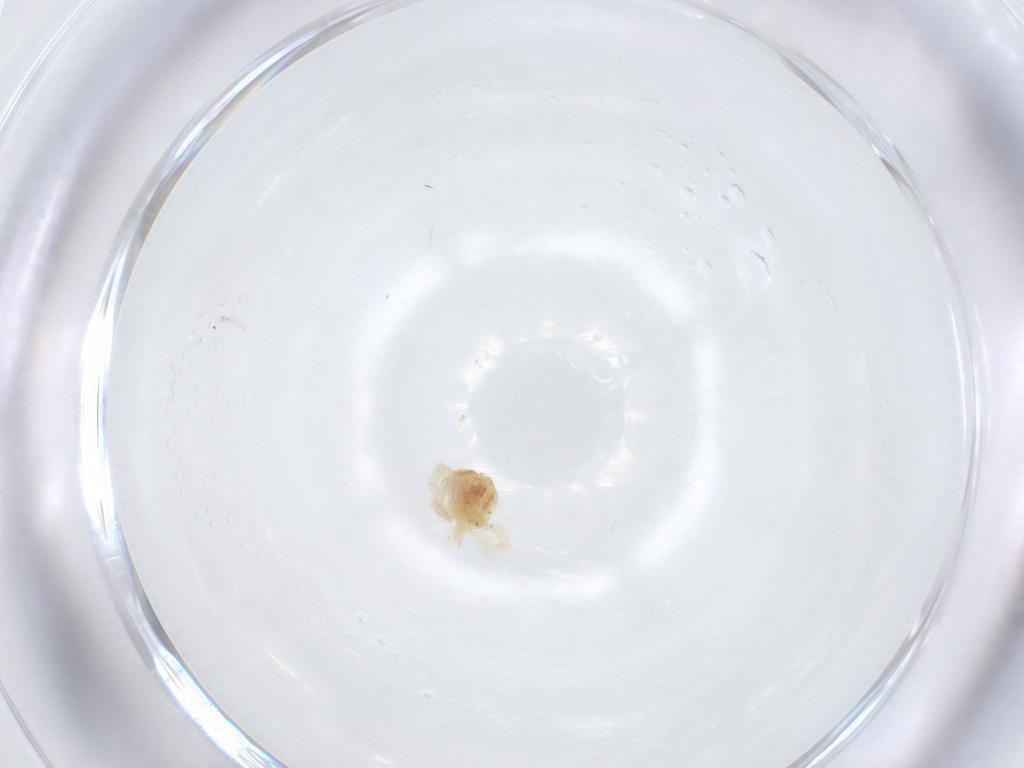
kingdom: Animalia
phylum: Arthropoda
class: Arachnida
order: Trombidiformes
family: Anystidae
